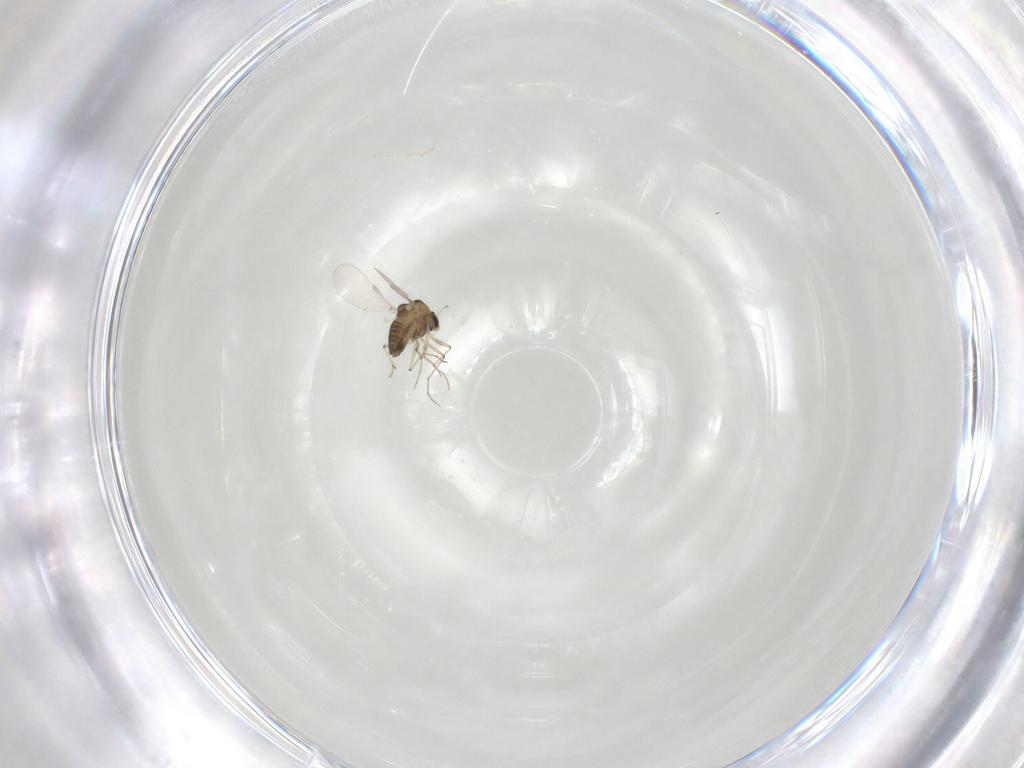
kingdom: Animalia
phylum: Arthropoda
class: Insecta
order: Diptera
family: Chironomidae
